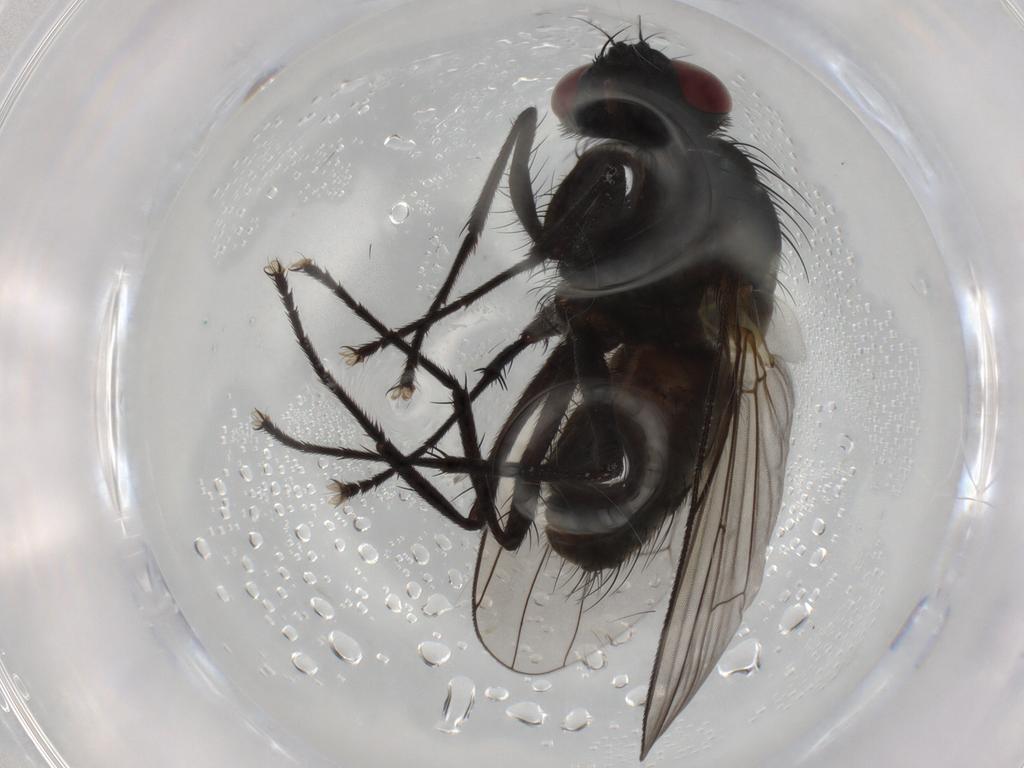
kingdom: Animalia
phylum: Arthropoda
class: Insecta
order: Diptera
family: Muscidae
